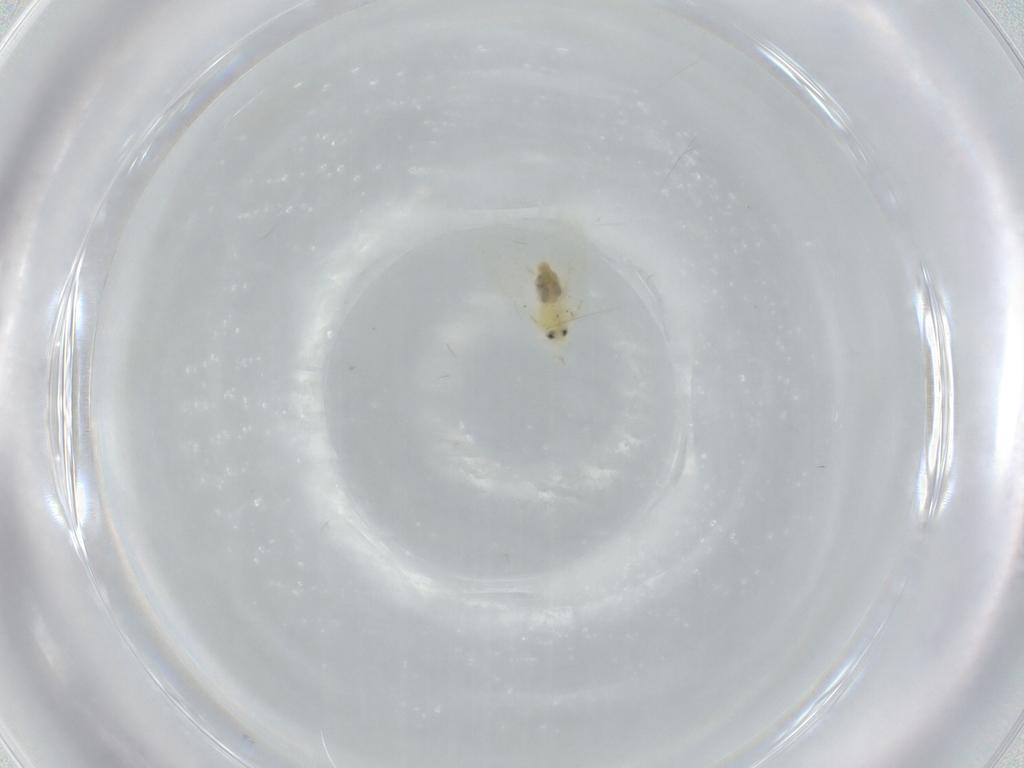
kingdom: Animalia
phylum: Arthropoda
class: Insecta
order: Hemiptera
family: Aleyrodidae
